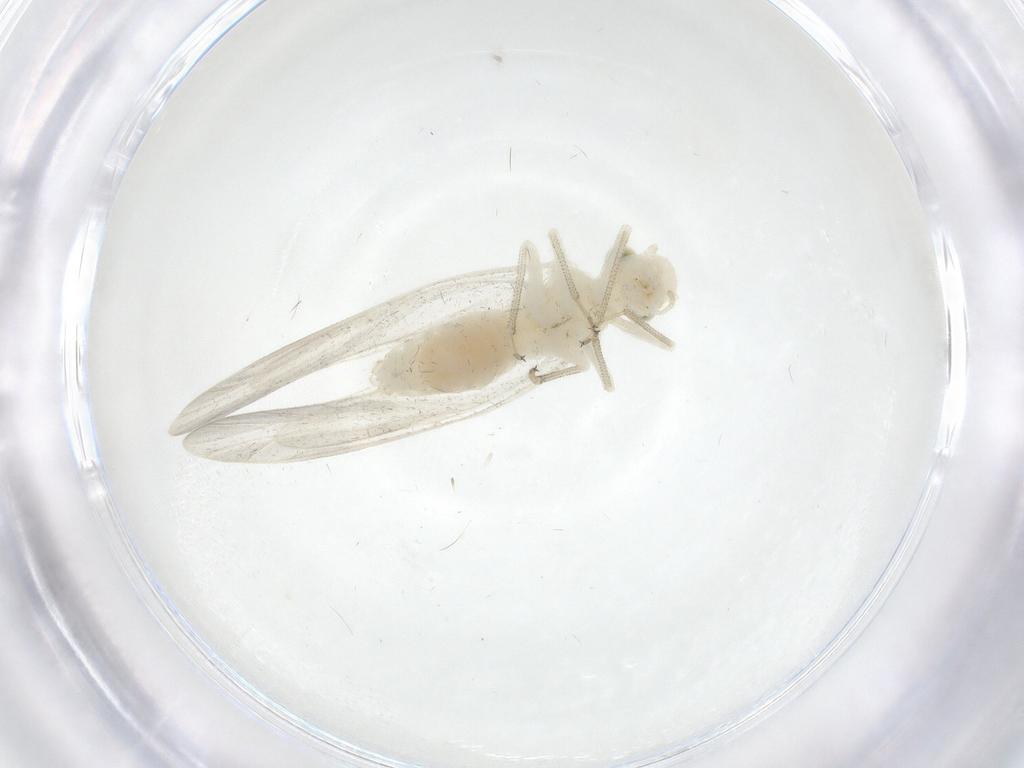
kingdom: Animalia
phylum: Arthropoda
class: Insecta
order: Psocodea
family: Caeciliusidae
